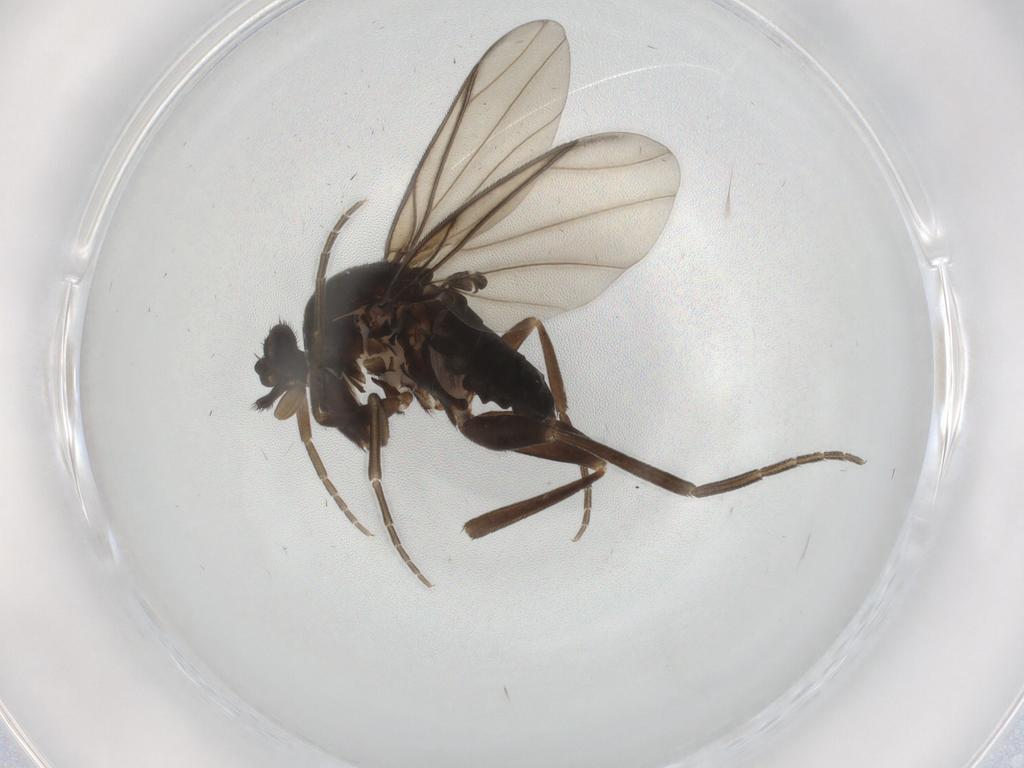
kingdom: Animalia
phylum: Arthropoda
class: Insecta
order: Diptera
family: Phoridae
